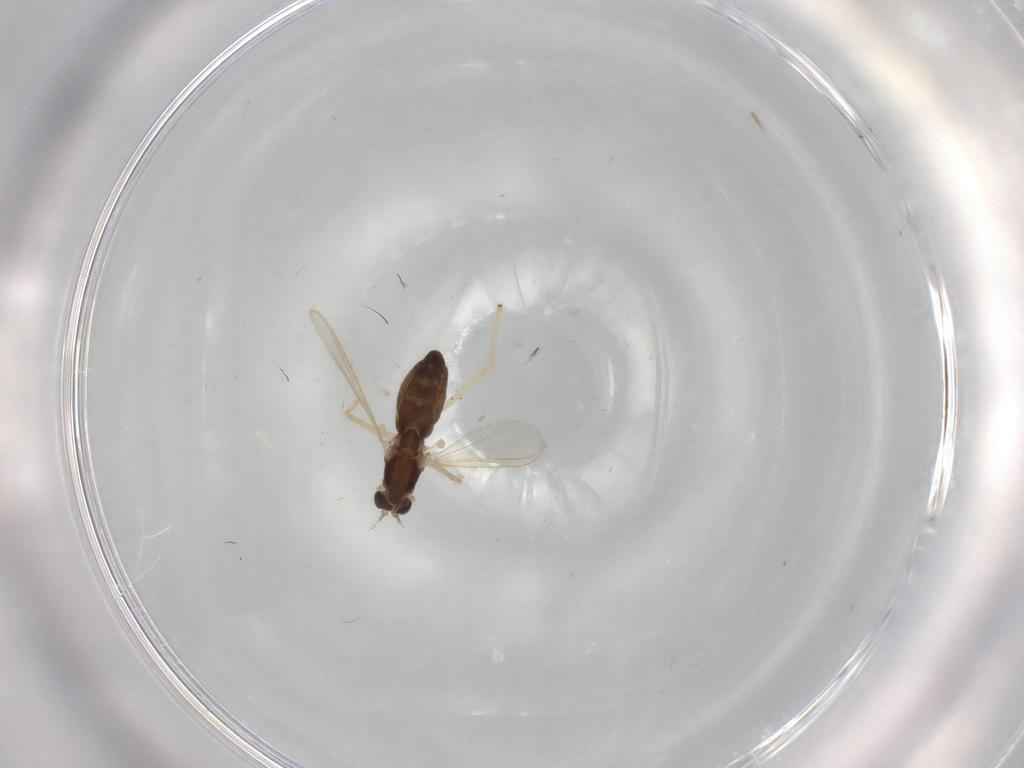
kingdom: Animalia
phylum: Arthropoda
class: Insecta
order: Diptera
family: Chironomidae
